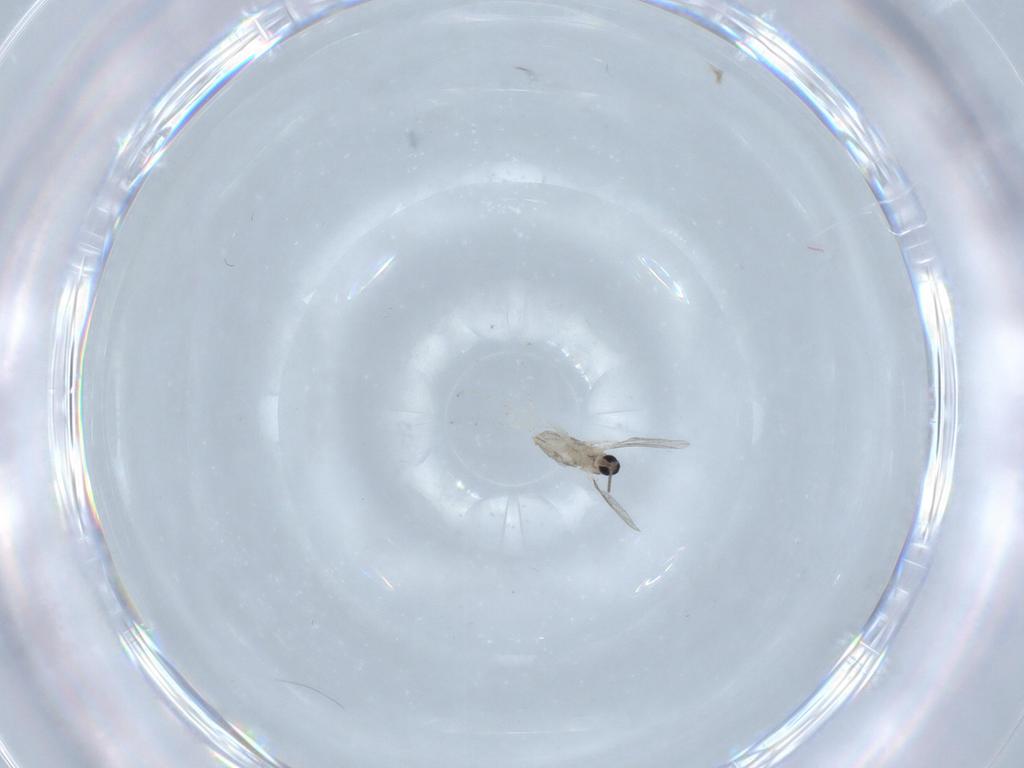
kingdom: Animalia
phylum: Arthropoda
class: Insecta
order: Diptera
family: Cecidomyiidae
